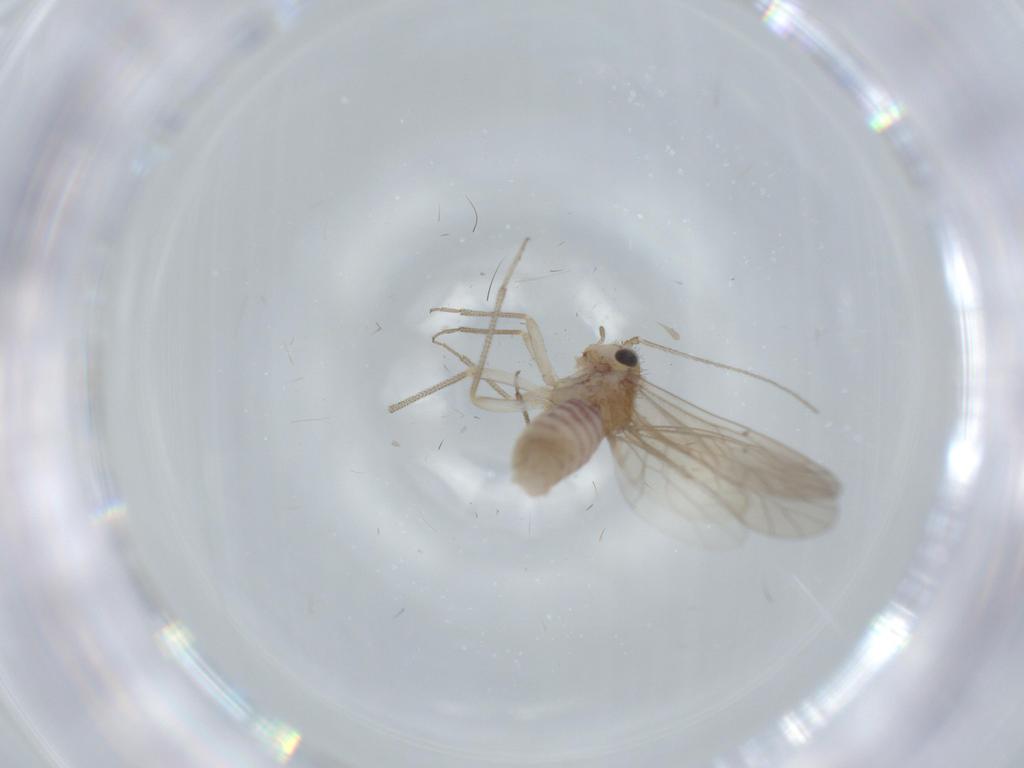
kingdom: Animalia
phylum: Arthropoda
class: Insecta
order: Psocodea
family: Caeciliusidae
